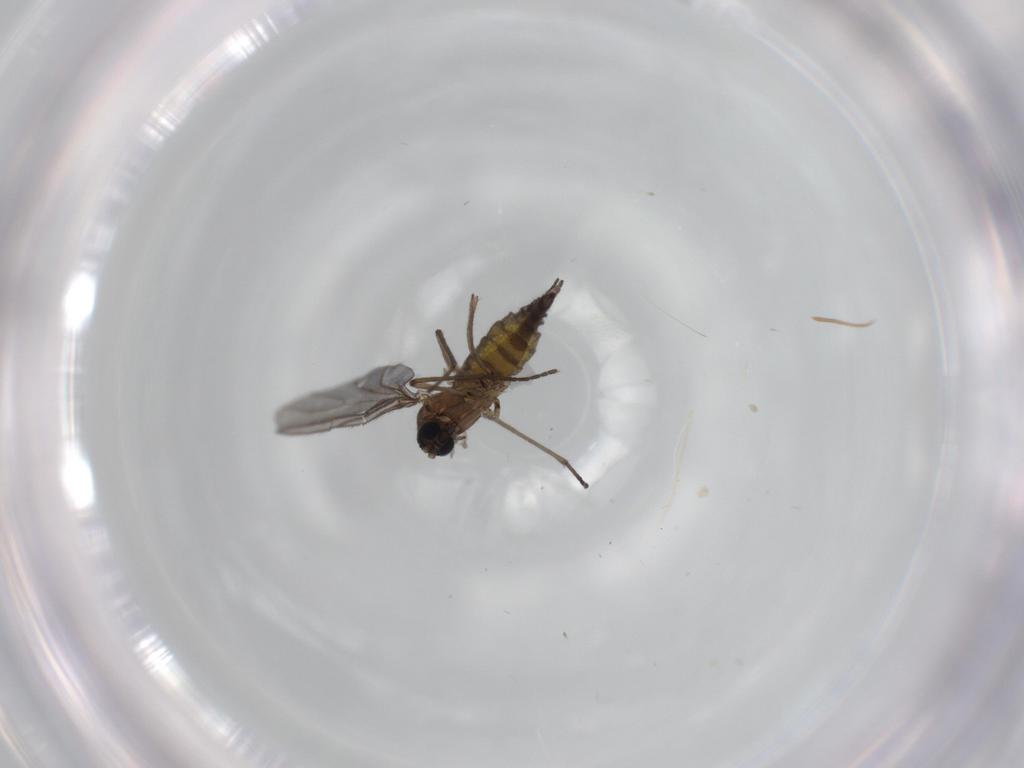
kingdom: Animalia
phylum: Arthropoda
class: Insecta
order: Diptera
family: Sciaridae
